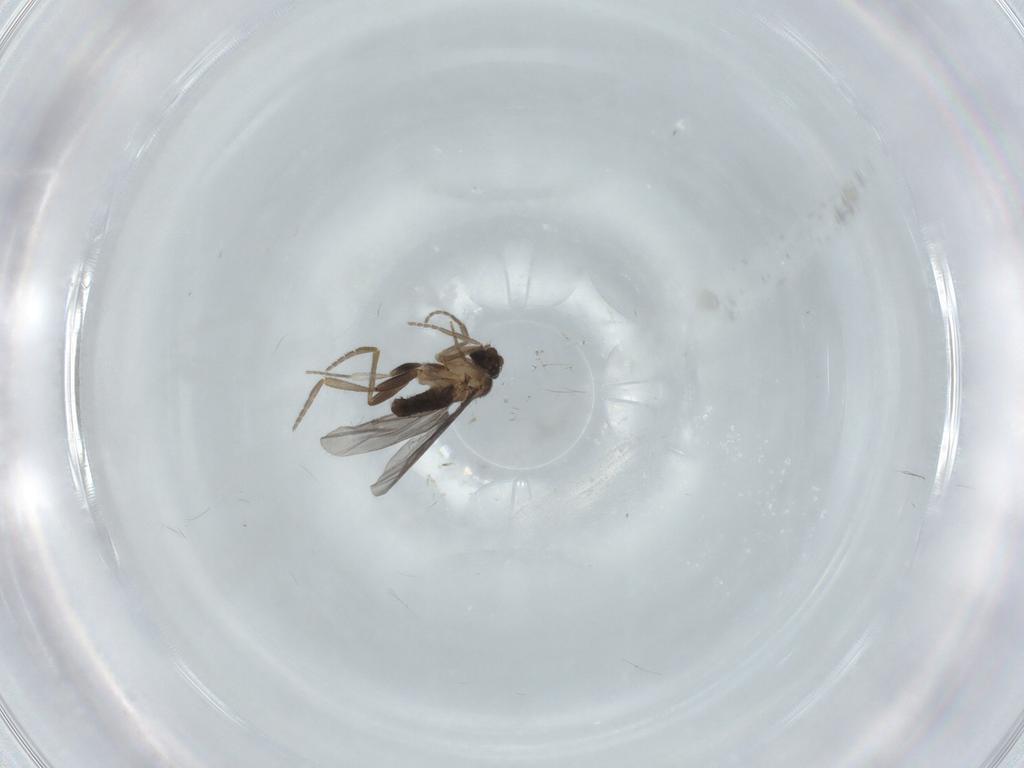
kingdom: Animalia
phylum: Arthropoda
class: Insecta
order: Diptera
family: Phoridae
